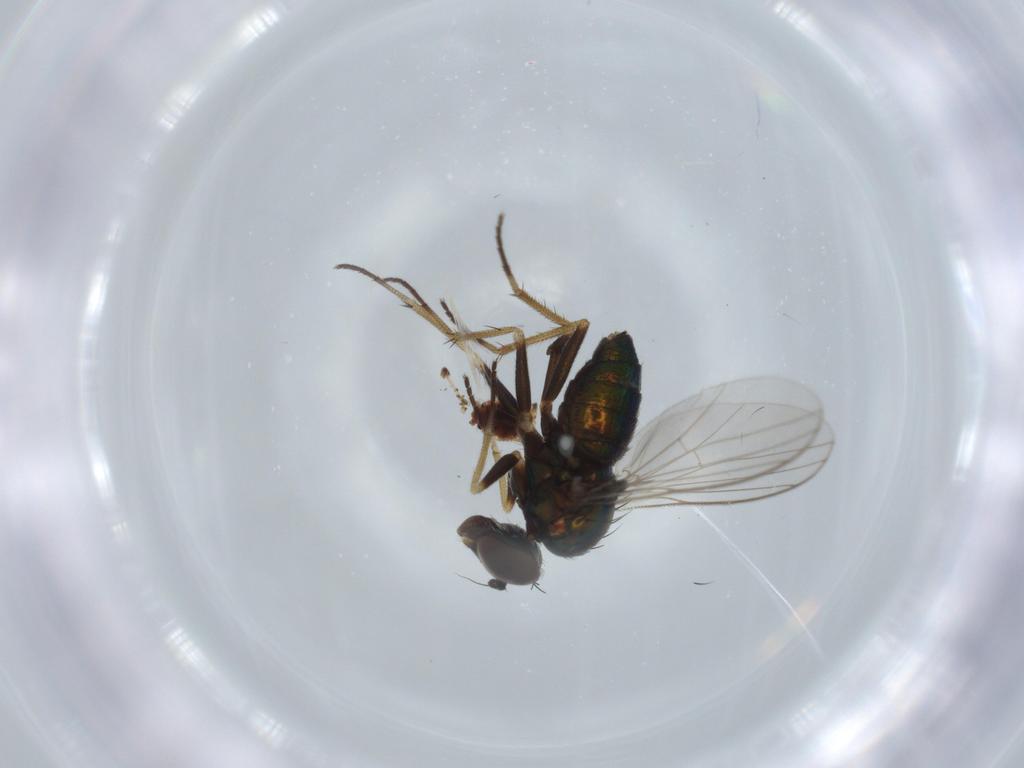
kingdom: Animalia
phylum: Arthropoda
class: Insecta
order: Diptera
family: Dolichopodidae
